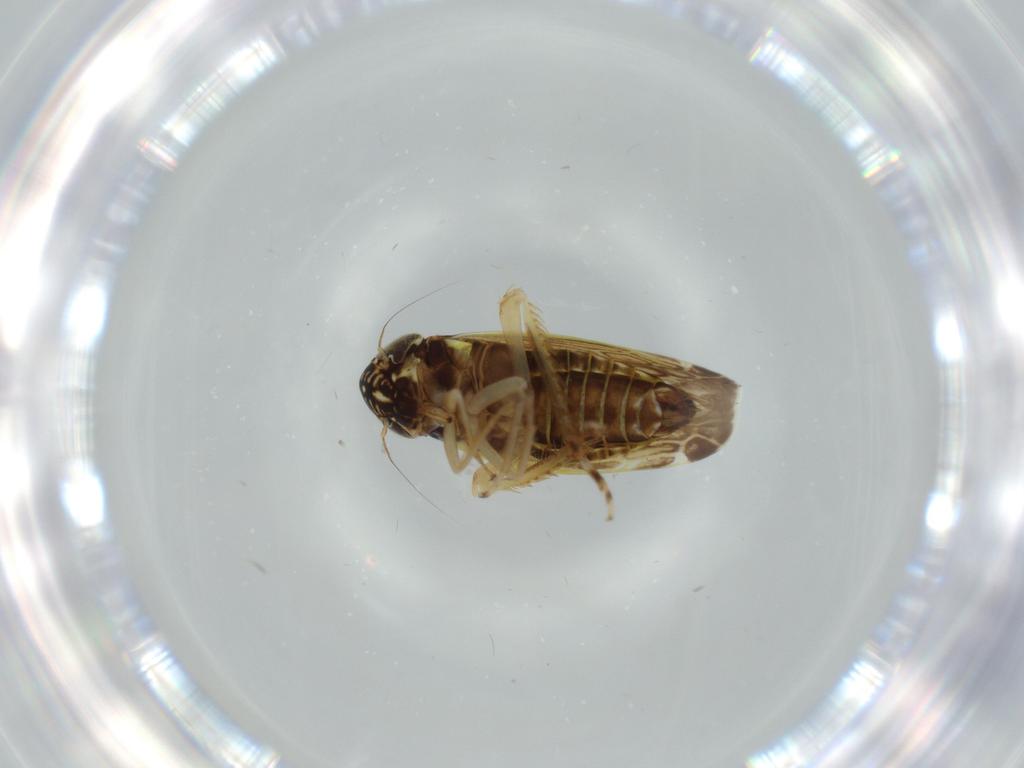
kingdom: Animalia
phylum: Arthropoda
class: Insecta
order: Hemiptera
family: Cicadellidae
